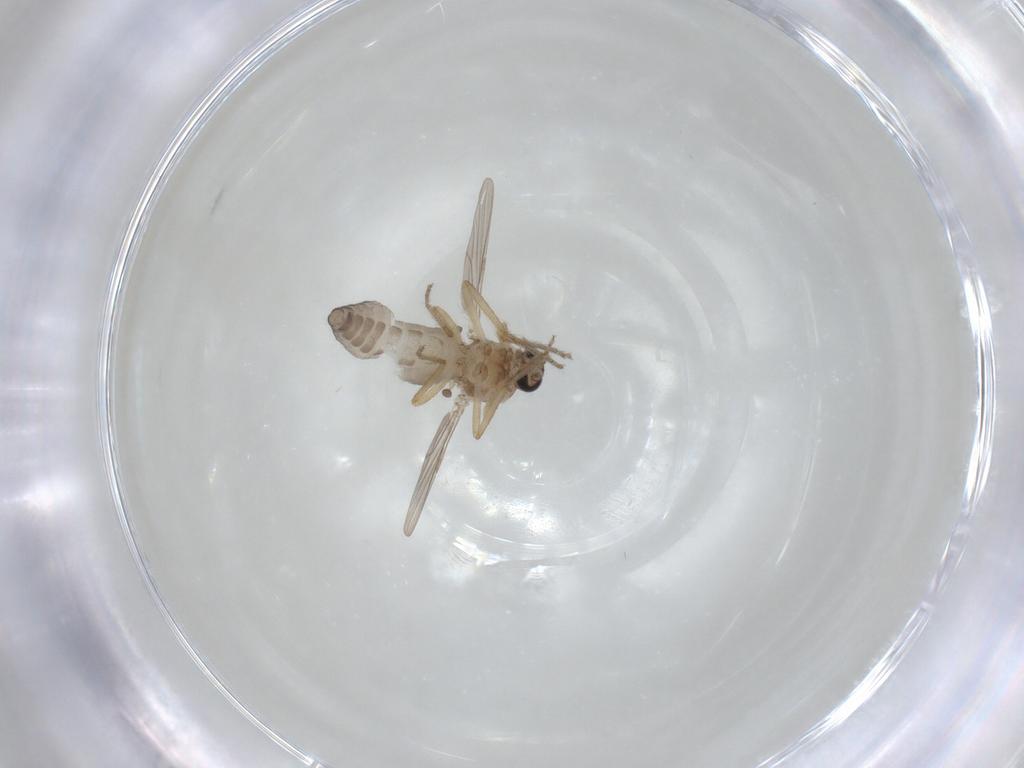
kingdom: Animalia
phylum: Arthropoda
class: Insecta
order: Diptera
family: Ceratopogonidae
